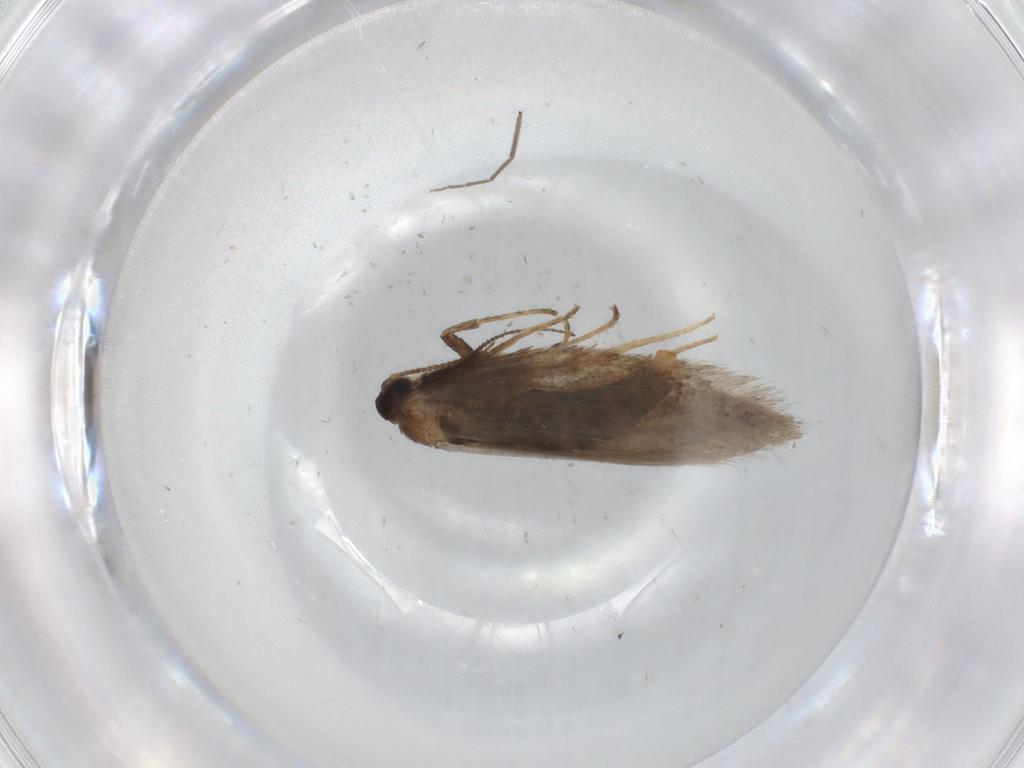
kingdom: Animalia
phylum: Arthropoda
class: Insecta
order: Lepidoptera
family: Nepticulidae
